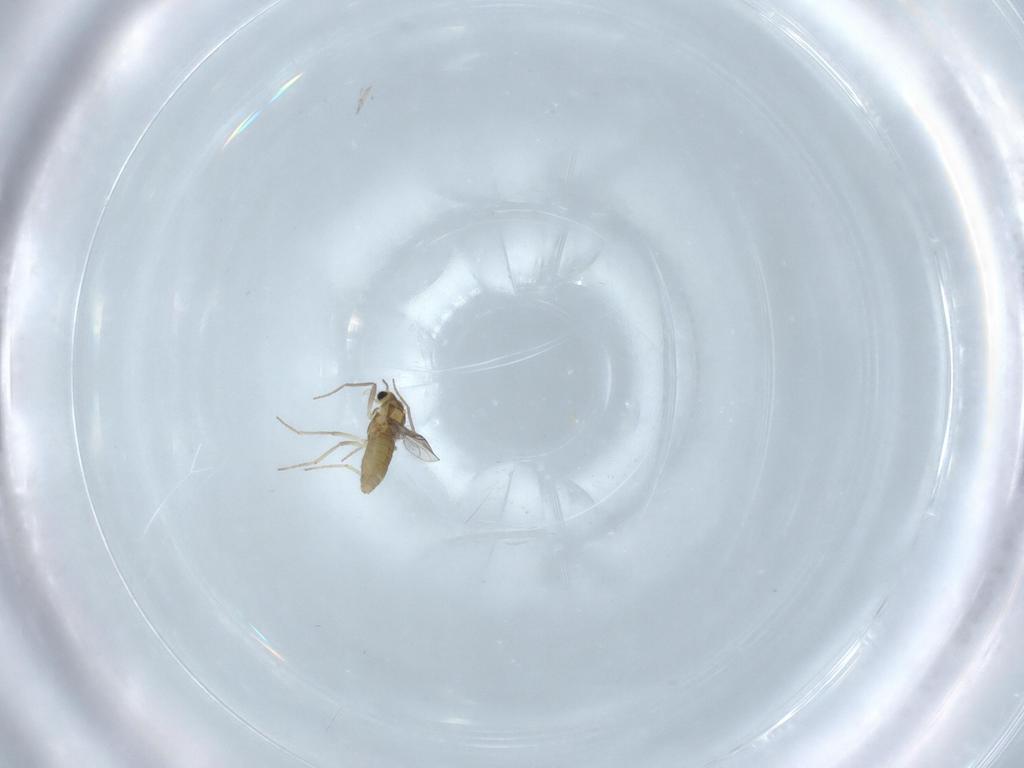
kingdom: Animalia
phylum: Arthropoda
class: Insecta
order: Diptera
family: Chironomidae
